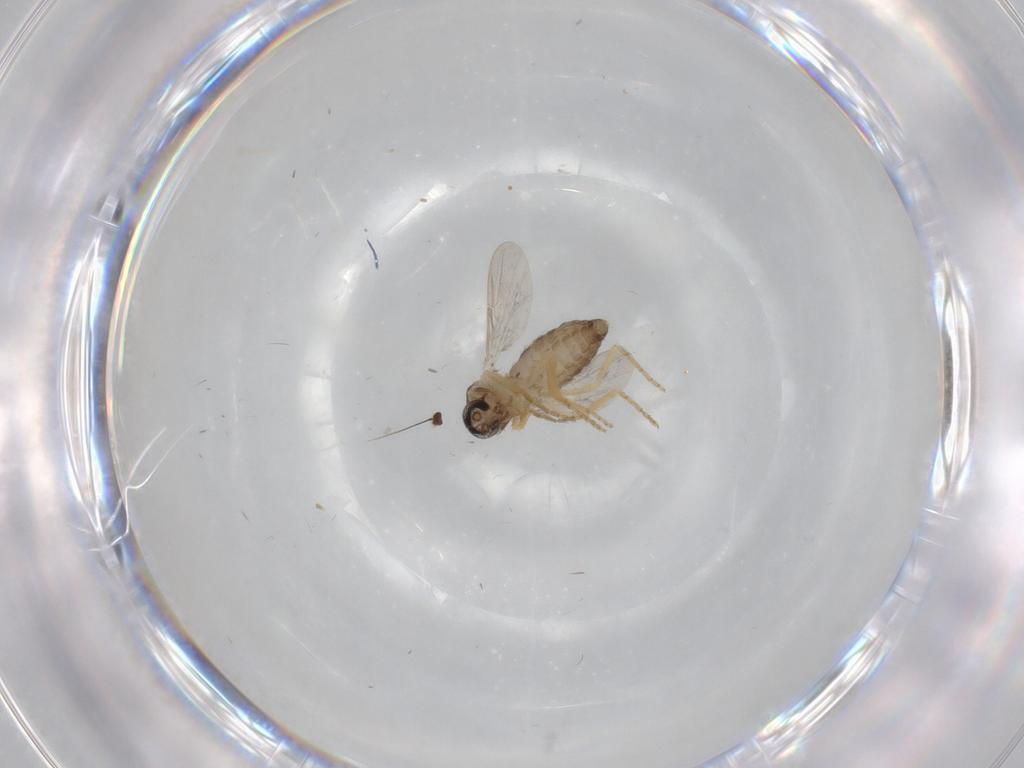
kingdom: Animalia
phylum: Arthropoda
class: Insecta
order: Diptera
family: Ceratopogonidae
